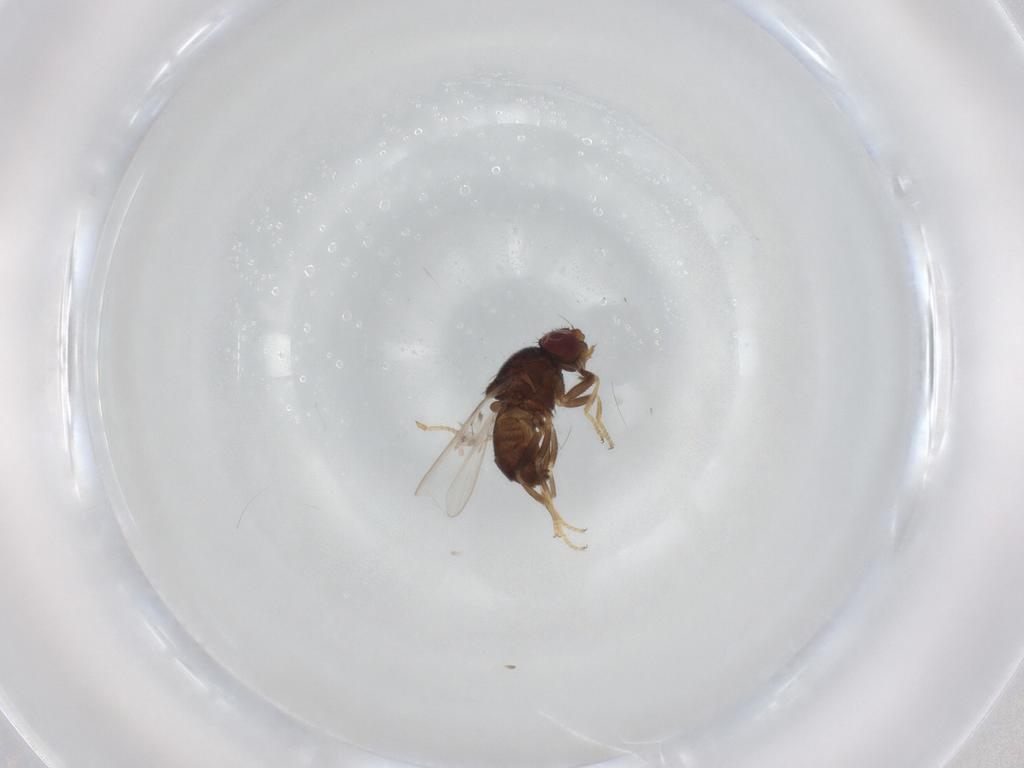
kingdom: Animalia
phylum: Arthropoda
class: Insecta
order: Diptera
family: Chloropidae
